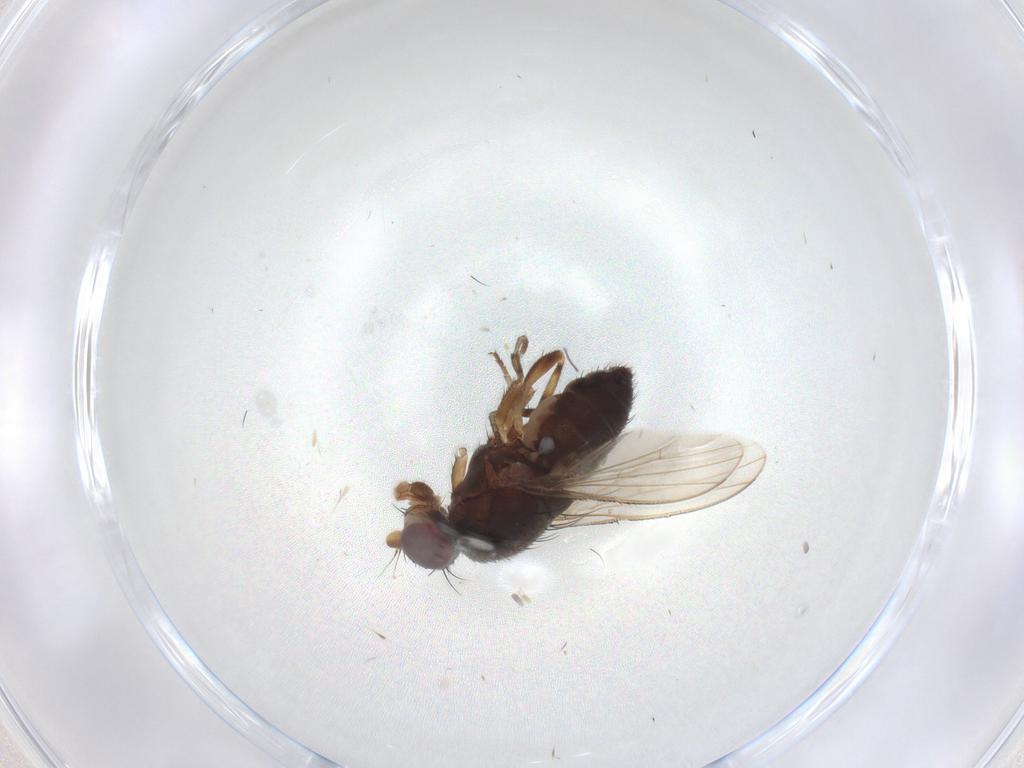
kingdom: Animalia
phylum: Arthropoda
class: Insecta
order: Diptera
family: Heleomyzidae
